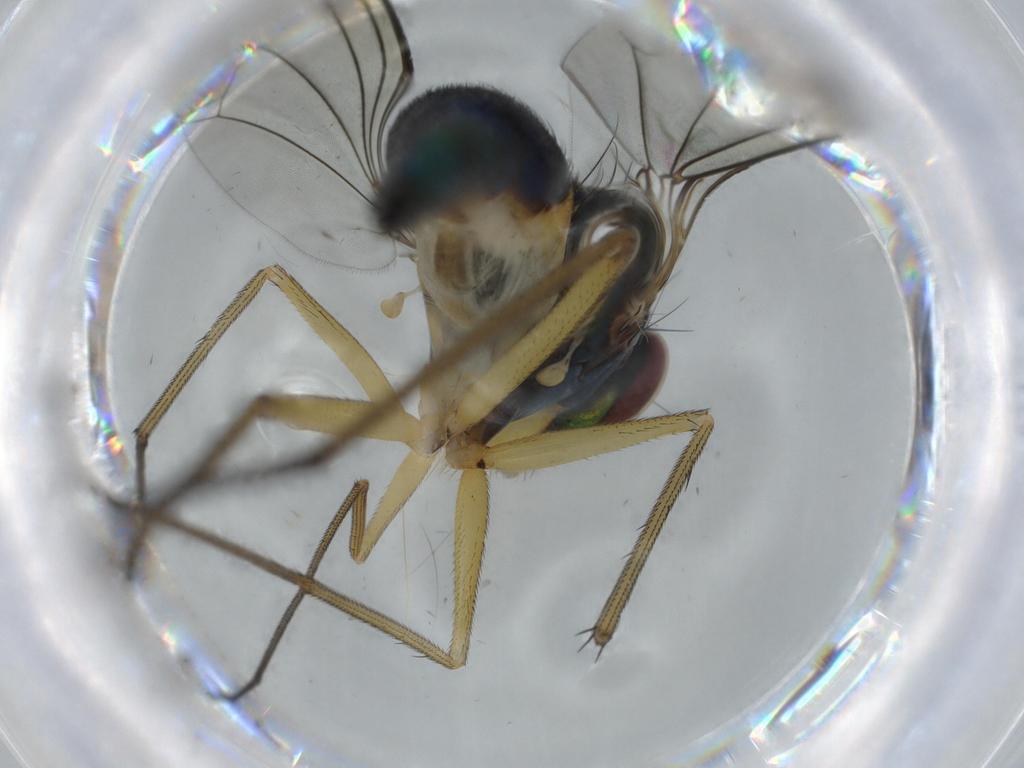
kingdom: Animalia
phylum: Arthropoda
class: Insecta
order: Diptera
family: Dolichopodidae
